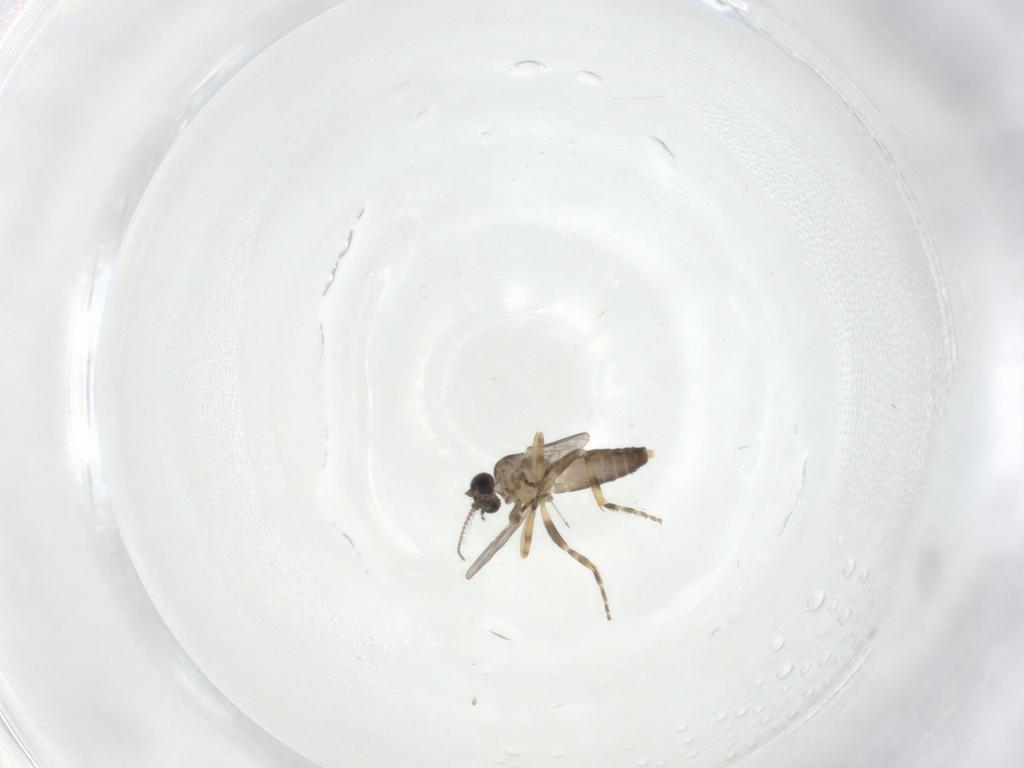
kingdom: Animalia
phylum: Arthropoda
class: Insecta
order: Diptera
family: Ceratopogonidae
